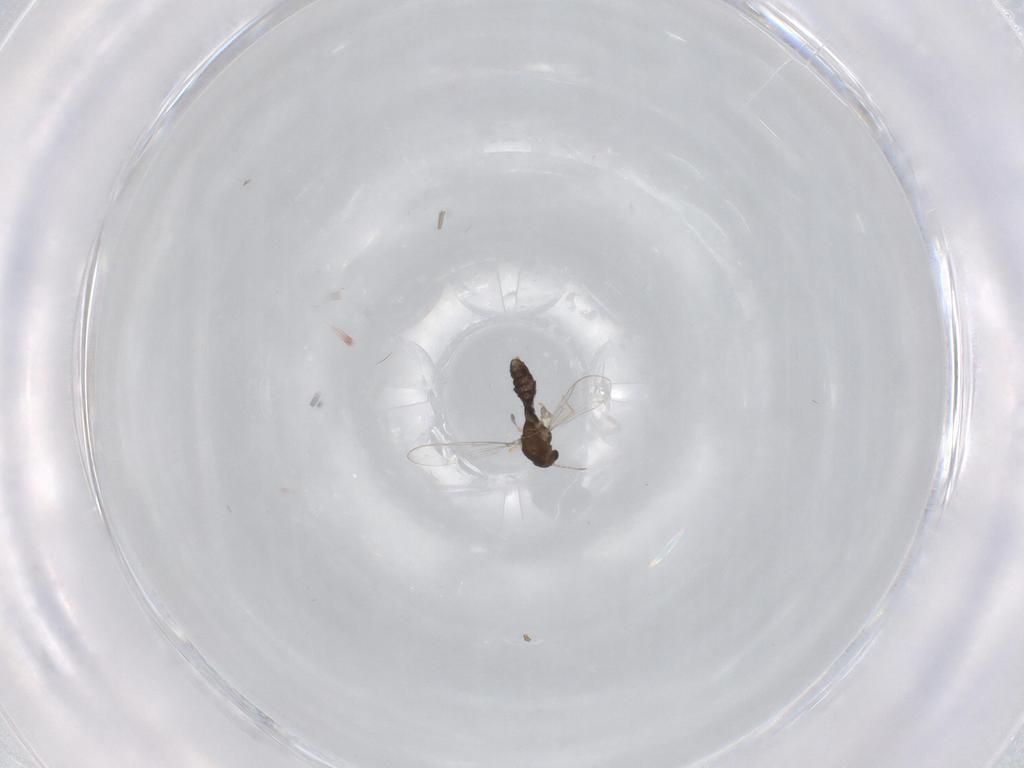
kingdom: Animalia
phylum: Arthropoda
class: Insecta
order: Diptera
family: Chironomidae
